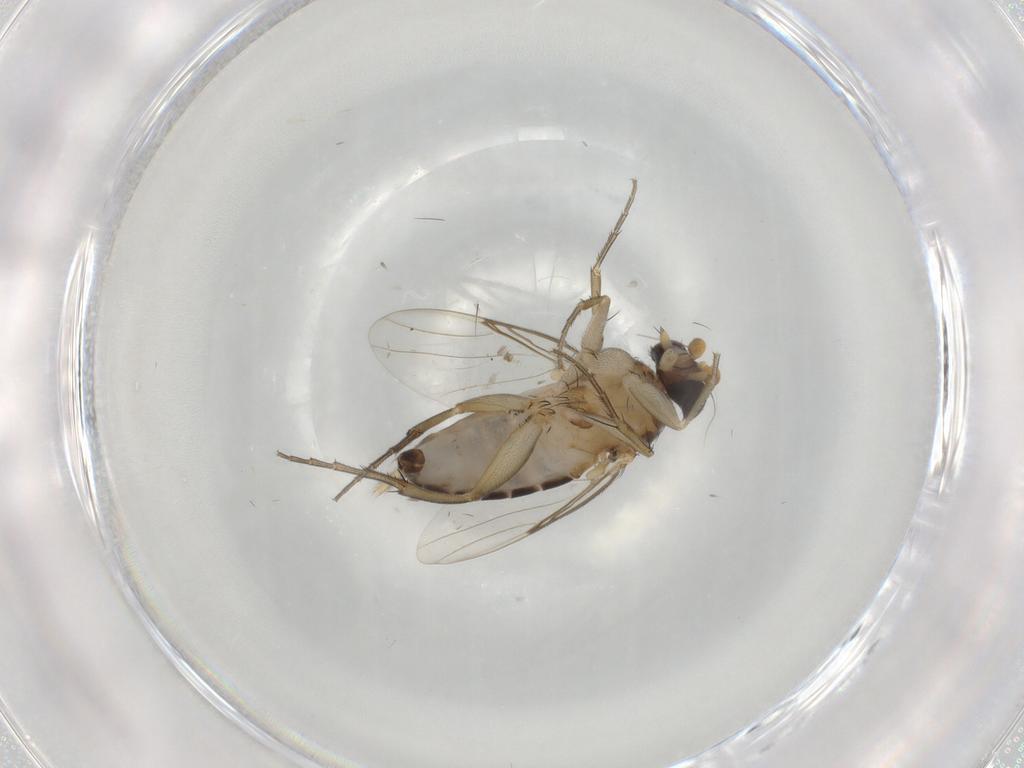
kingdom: Animalia
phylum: Arthropoda
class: Insecta
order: Diptera
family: Phoridae
